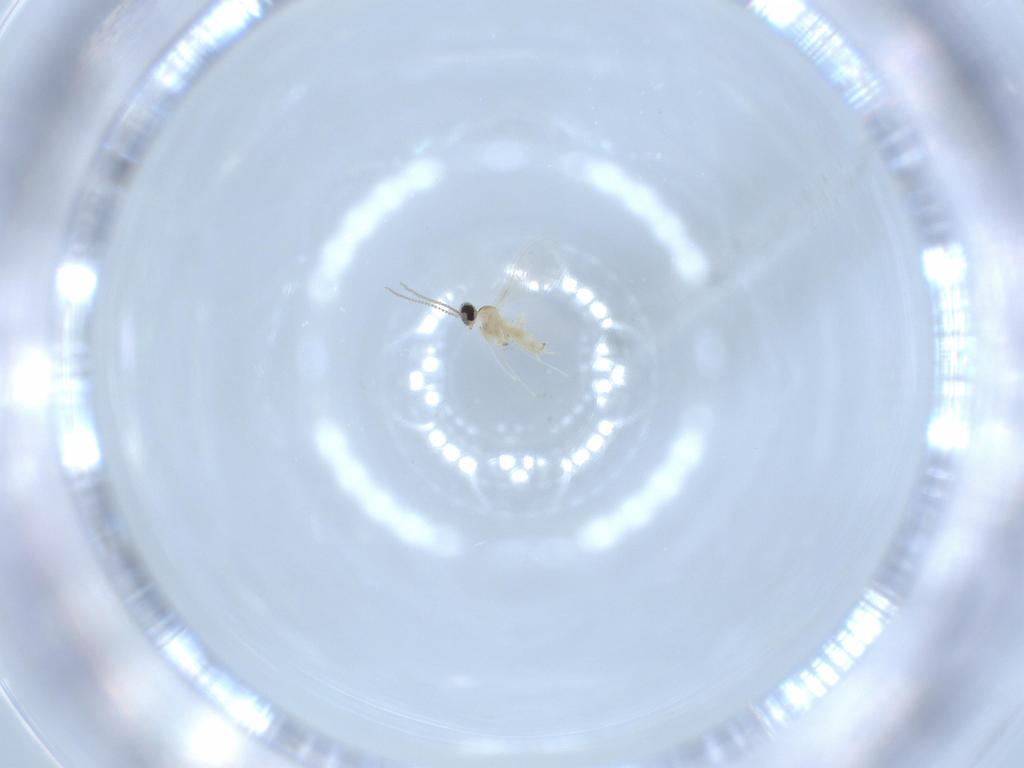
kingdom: Animalia
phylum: Arthropoda
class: Insecta
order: Diptera
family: Cecidomyiidae
